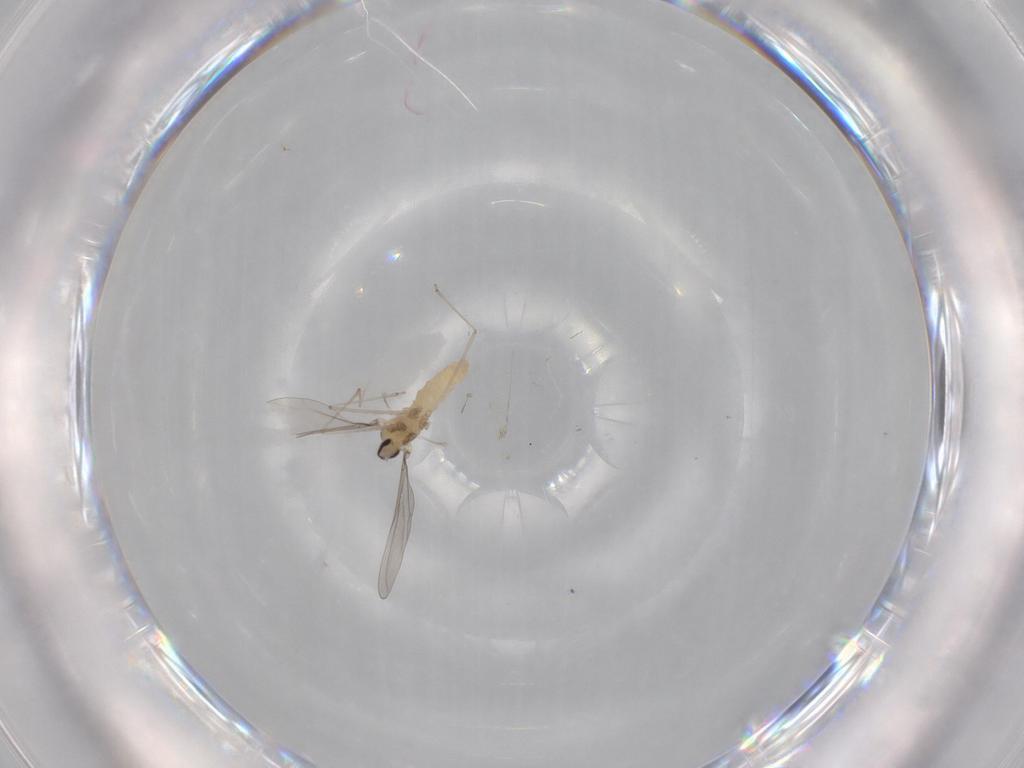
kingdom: Animalia
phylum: Arthropoda
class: Insecta
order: Diptera
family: Cecidomyiidae
